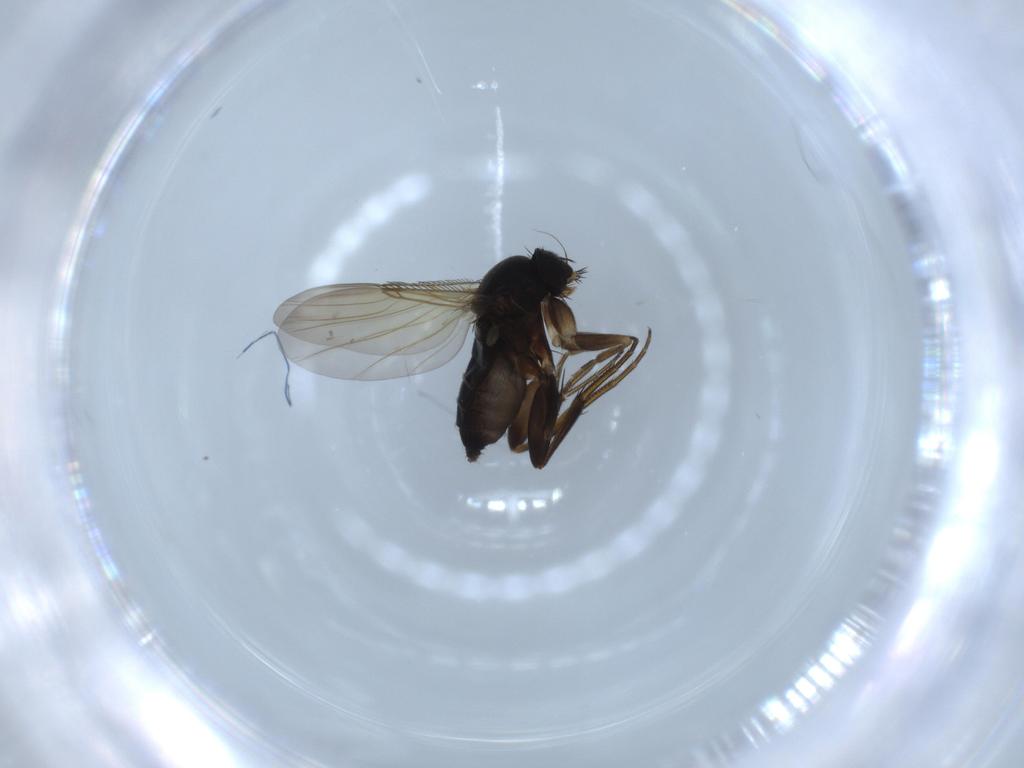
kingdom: Animalia
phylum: Arthropoda
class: Insecta
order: Diptera
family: Phoridae
